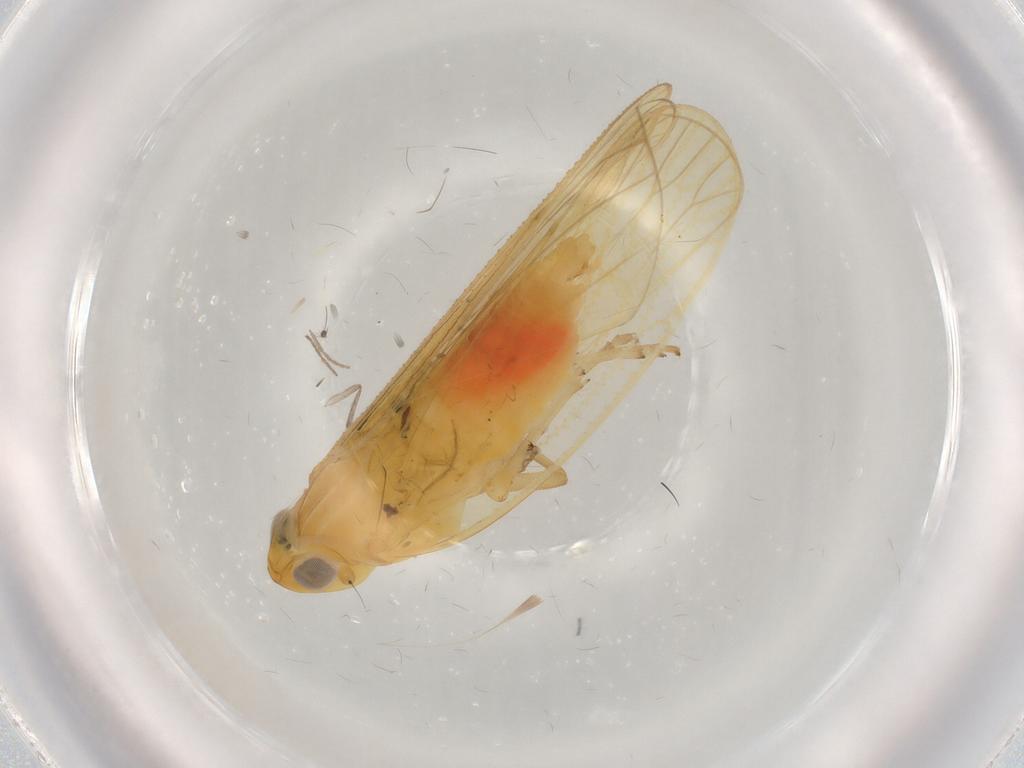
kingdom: Animalia
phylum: Arthropoda
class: Insecta
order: Hemiptera
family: Cixiidae
